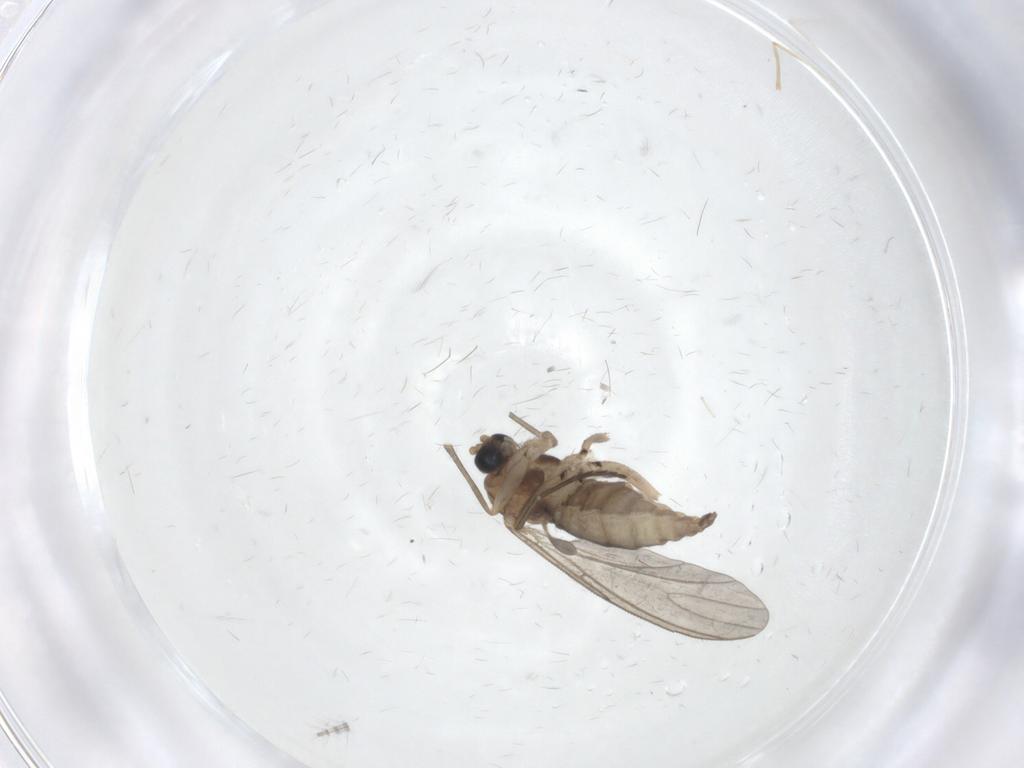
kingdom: Animalia
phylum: Arthropoda
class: Insecta
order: Diptera
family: Sciaridae
